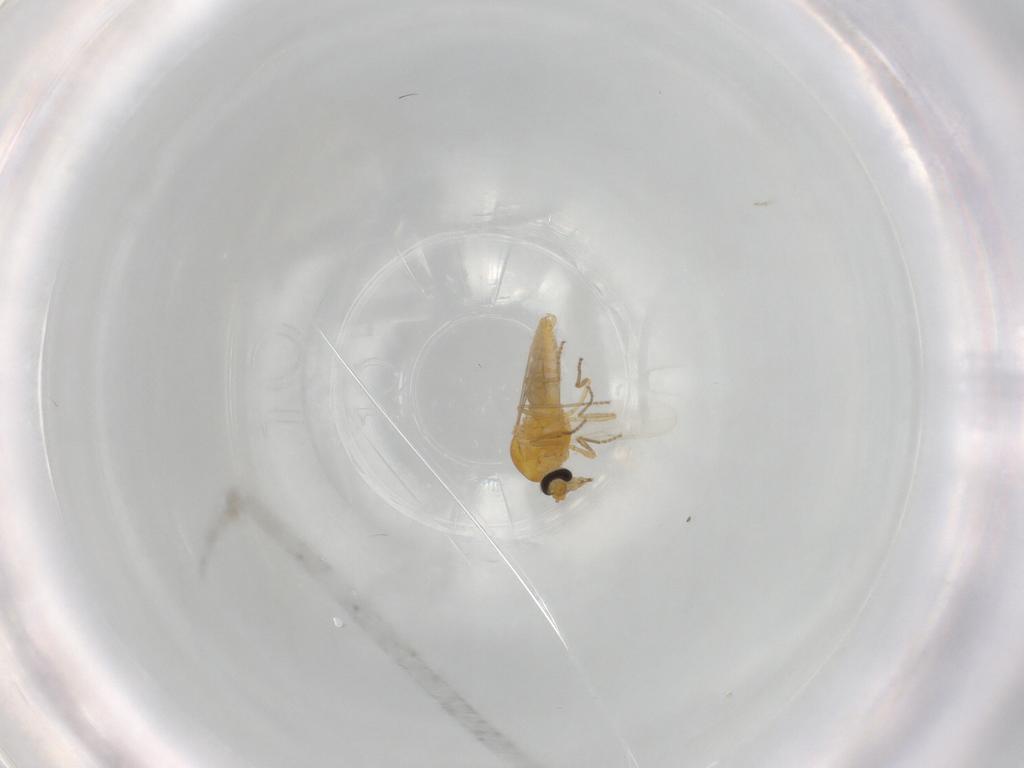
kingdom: Animalia
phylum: Arthropoda
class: Insecta
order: Diptera
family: Ceratopogonidae
